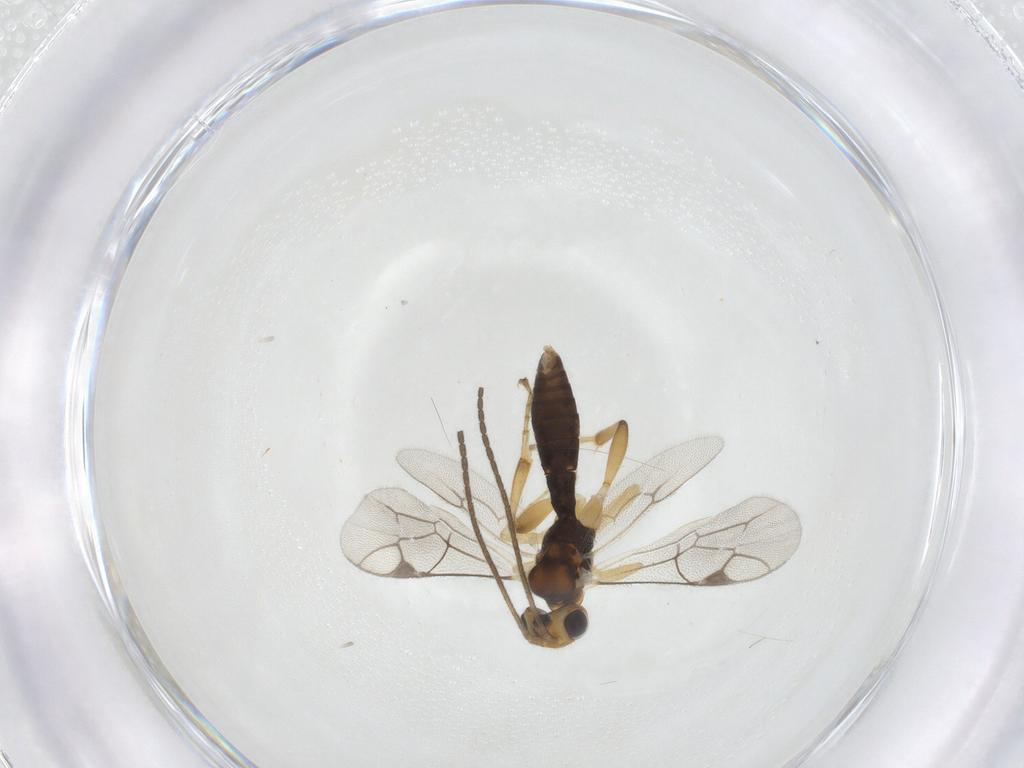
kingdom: Animalia
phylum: Arthropoda
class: Insecta
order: Hymenoptera
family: Ichneumonidae
